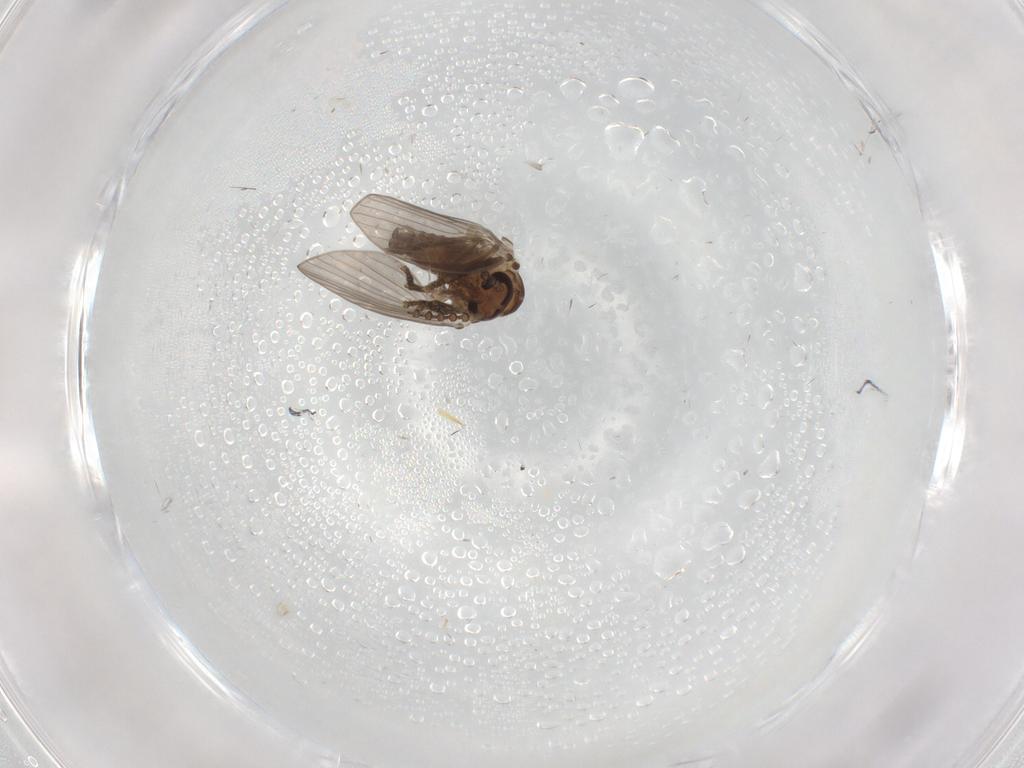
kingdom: Animalia
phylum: Arthropoda
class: Insecta
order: Diptera
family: Psychodidae
